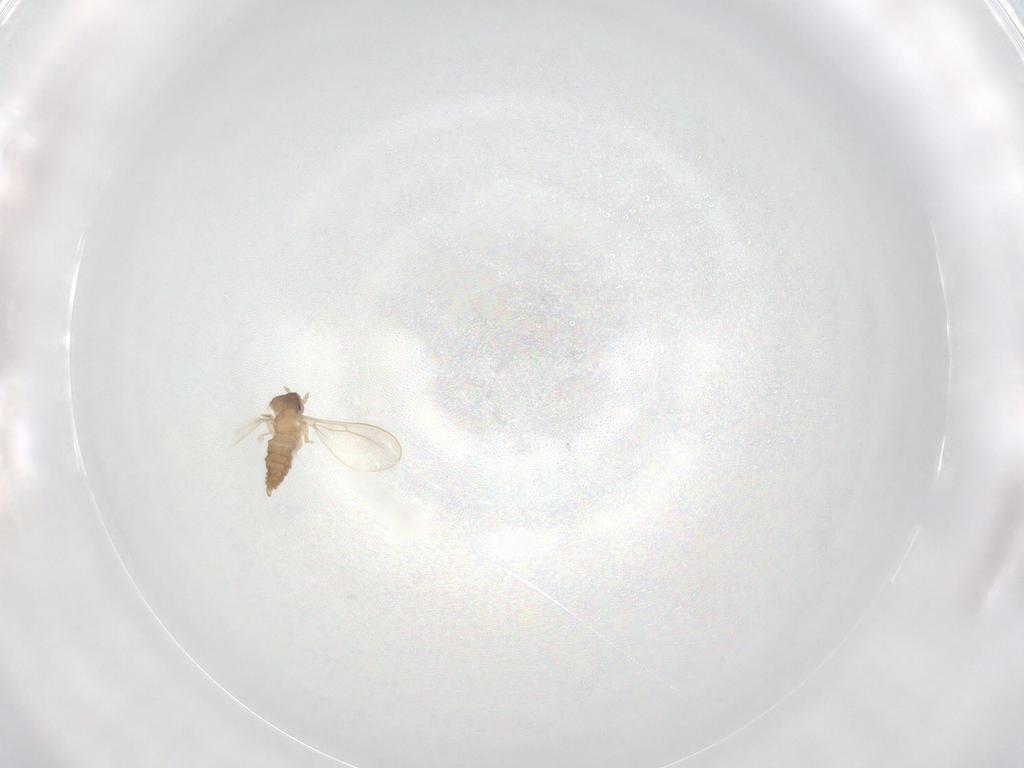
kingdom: Animalia
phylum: Arthropoda
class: Insecta
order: Diptera
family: Cecidomyiidae
